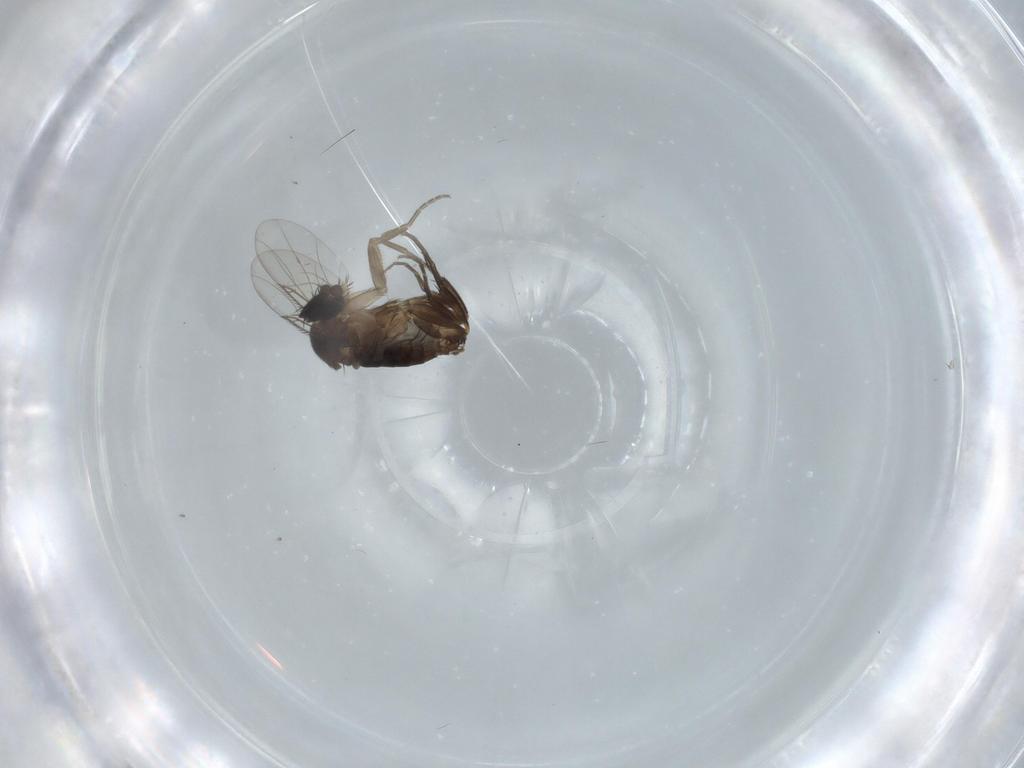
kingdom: Animalia
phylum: Arthropoda
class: Insecta
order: Diptera
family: Phoridae
